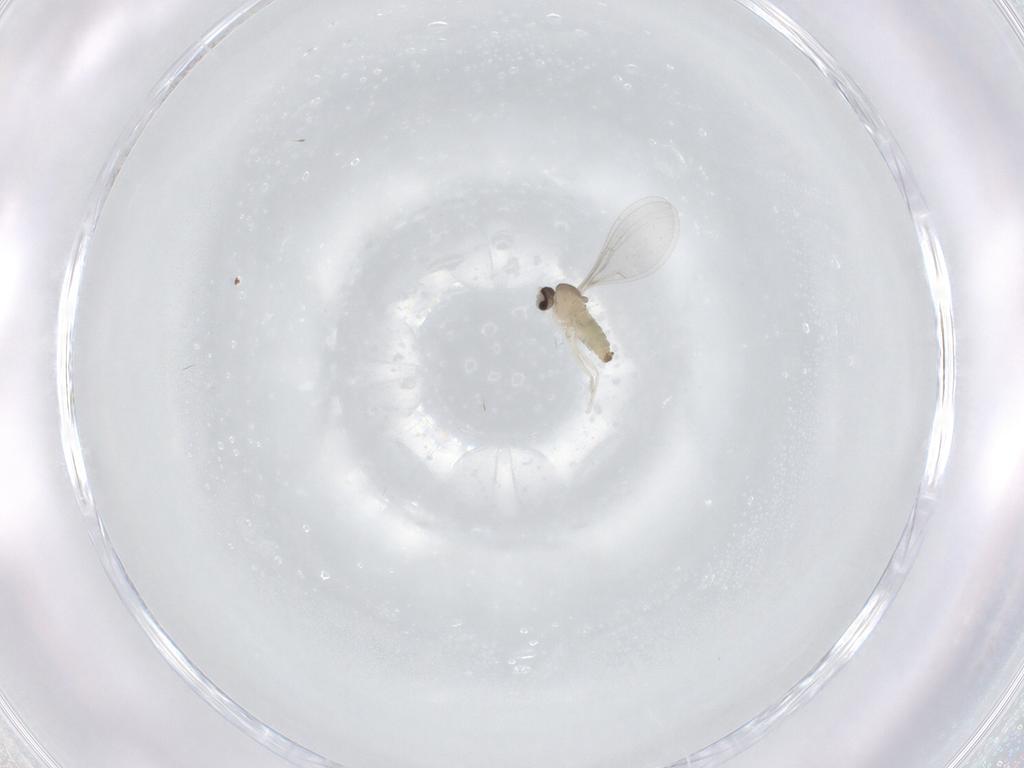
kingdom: Animalia
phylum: Arthropoda
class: Insecta
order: Diptera
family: Cecidomyiidae
